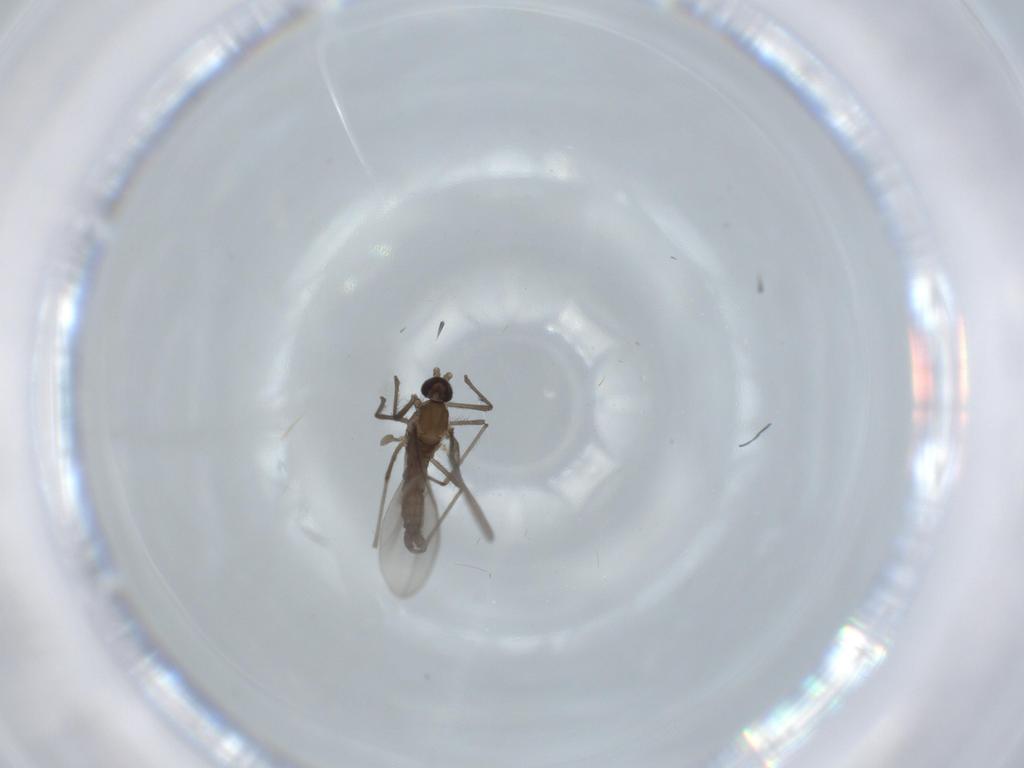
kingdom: Animalia
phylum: Arthropoda
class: Insecta
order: Diptera
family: Cecidomyiidae
